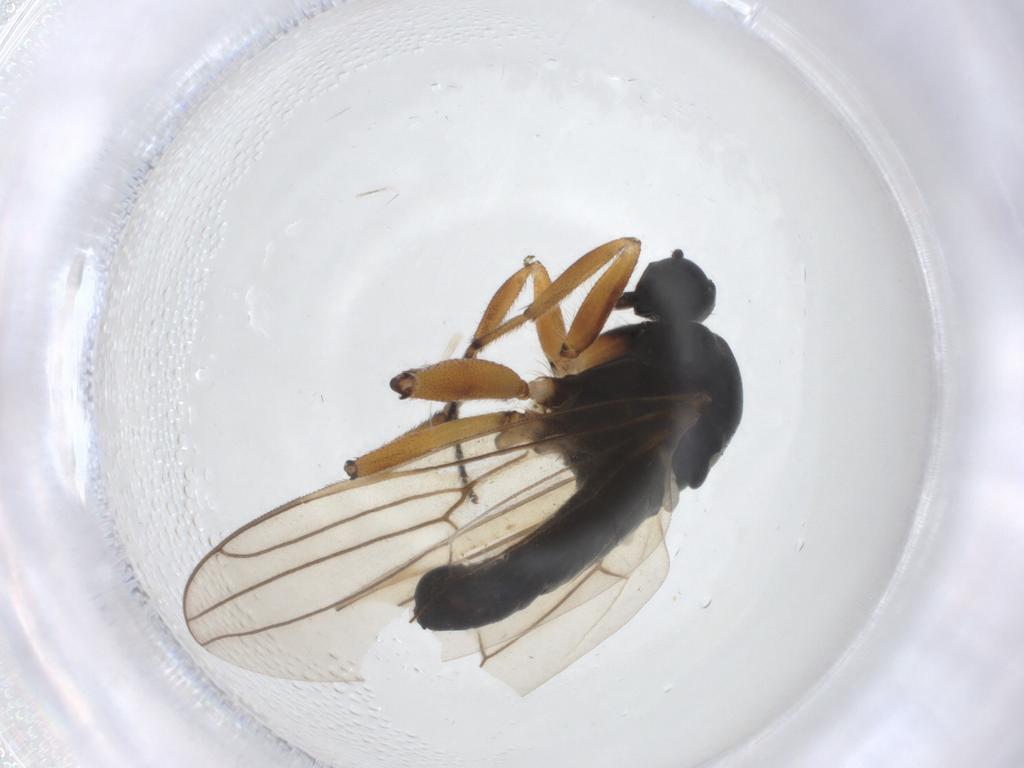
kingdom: Animalia
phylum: Arthropoda
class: Insecta
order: Diptera
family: Hybotidae
